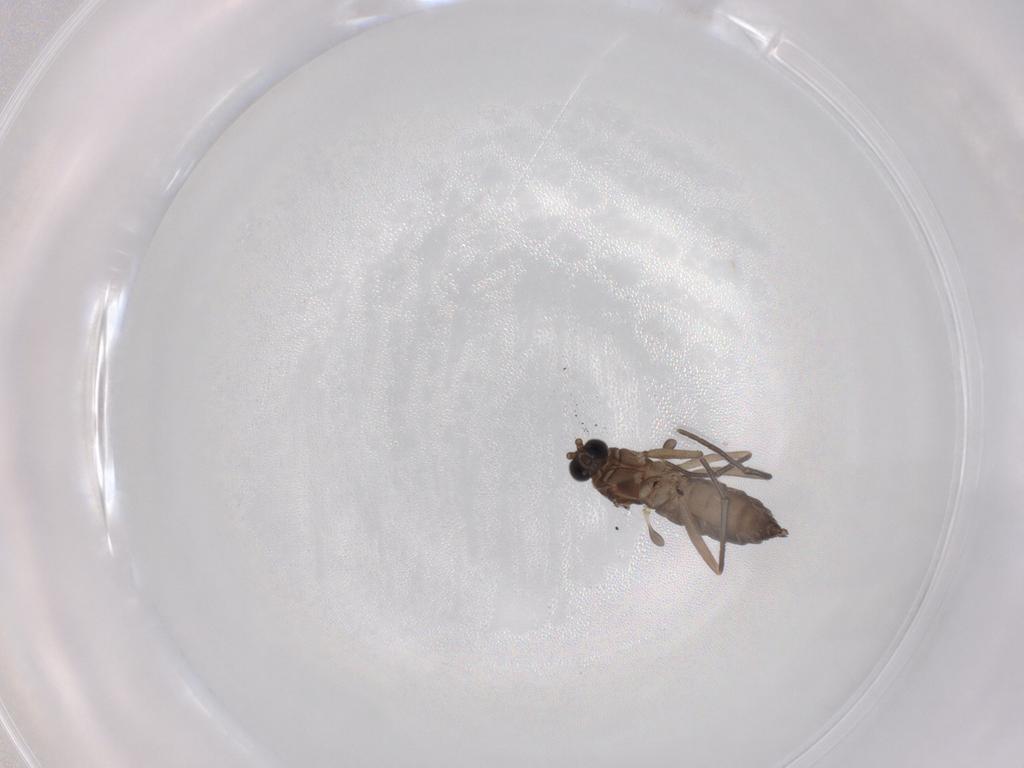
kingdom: Animalia
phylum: Arthropoda
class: Insecta
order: Diptera
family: Sciaridae
